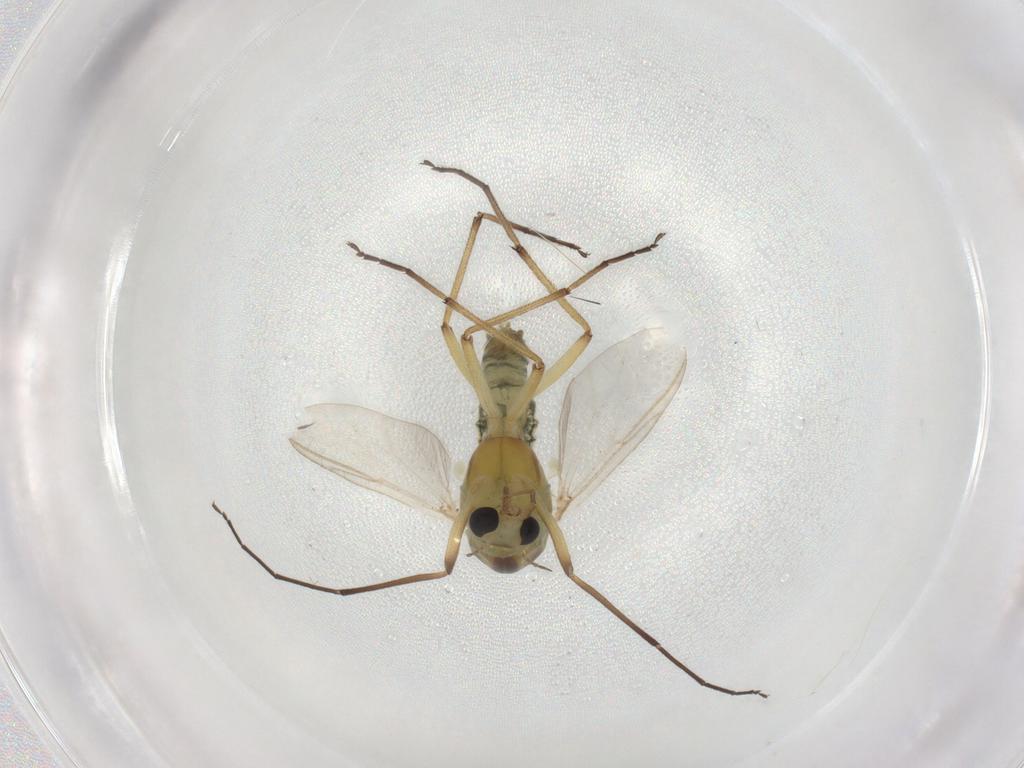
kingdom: Animalia
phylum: Arthropoda
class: Insecta
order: Diptera
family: Chironomidae
